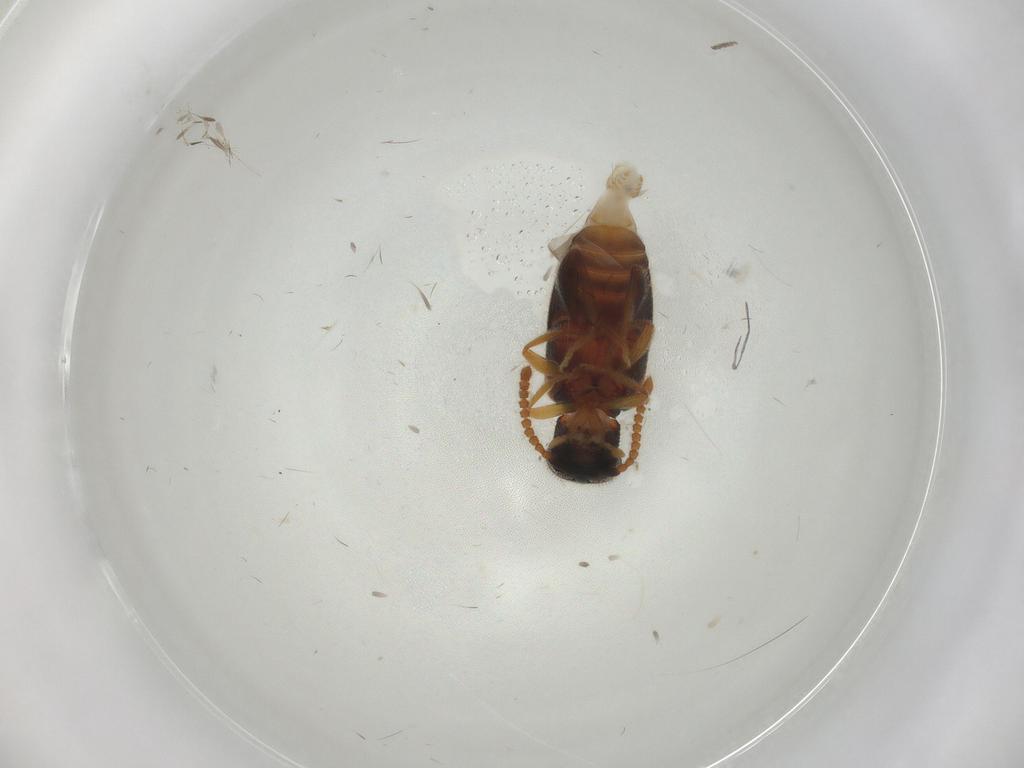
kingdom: Animalia
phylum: Arthropoda
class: Insecta
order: Coleoptera
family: Aderidae
